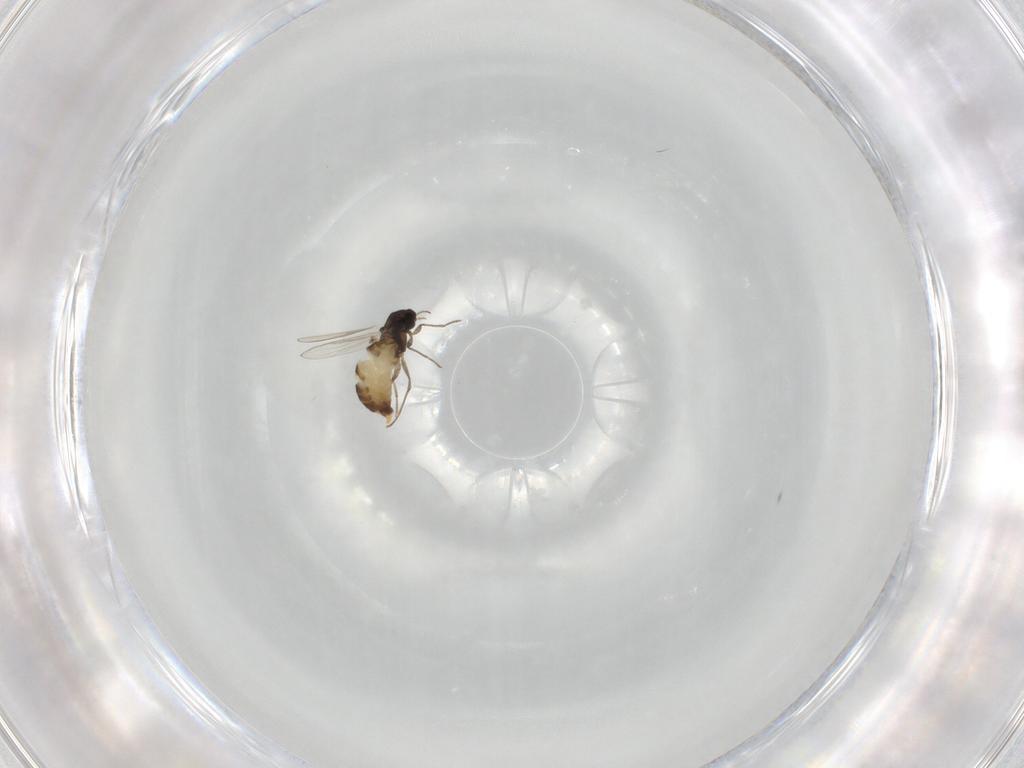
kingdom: Animalia
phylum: Arthropoda
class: Insecta
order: Diptera
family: Chironomidae
